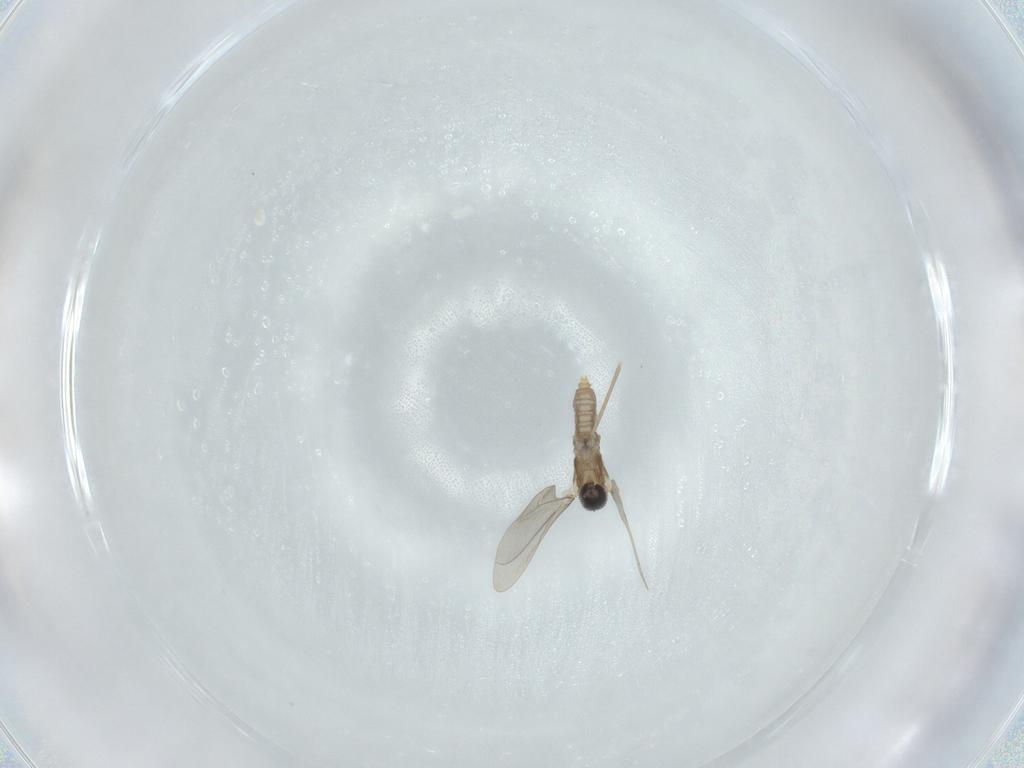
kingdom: Animalia
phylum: Arthropoda
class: Insecta
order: Diptera
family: Cecidomyiidae
